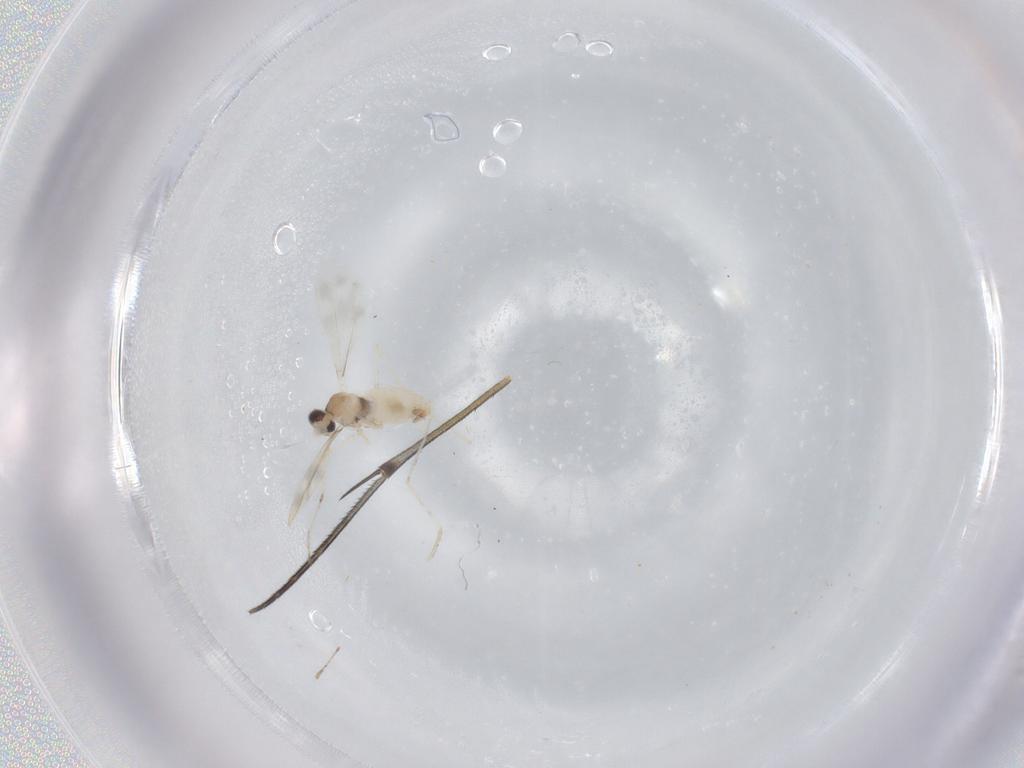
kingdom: Animalia
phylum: Arthropoda
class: Insecta
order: Diptera
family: Cecidomyiidae
